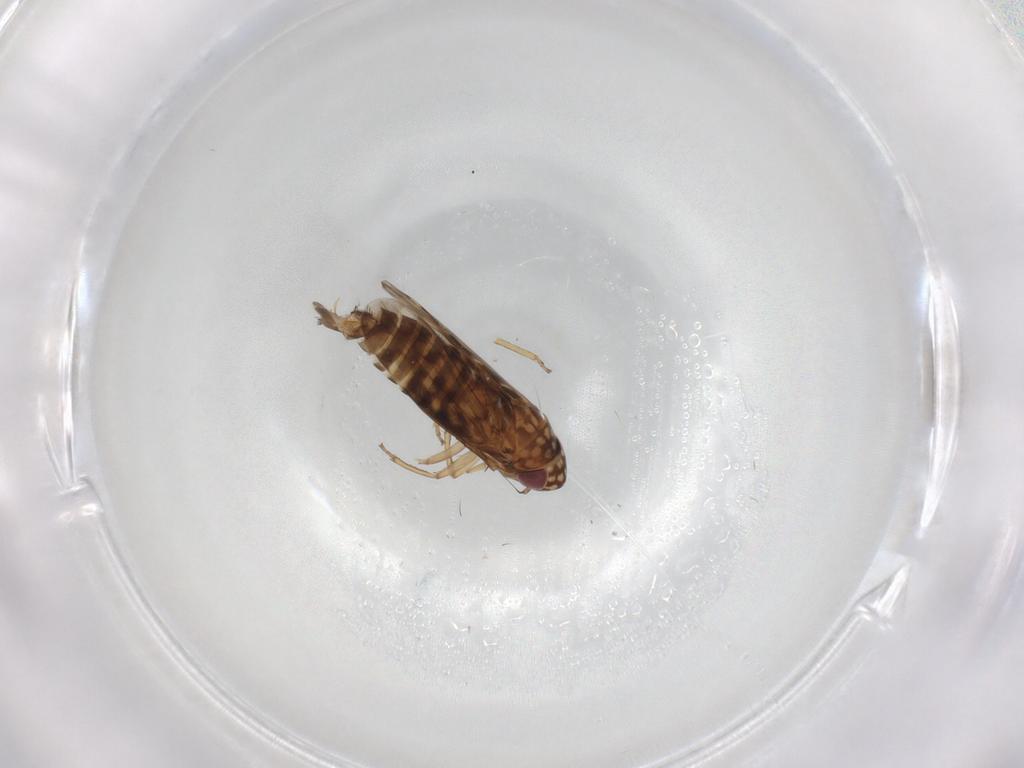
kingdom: Animalia
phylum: Arthropoda
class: Insecta
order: Hemiptera
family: Cicadellidae
